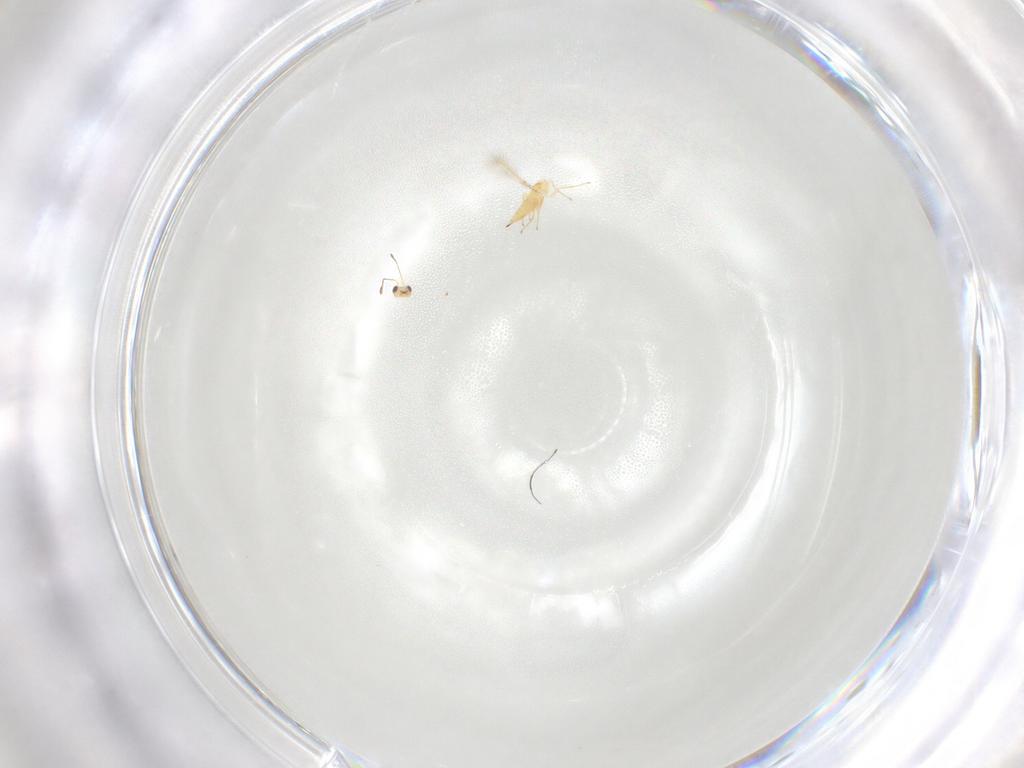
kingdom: Animalia
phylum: Arthropoda
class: Insecta
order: Hymenoptera
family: Mymaridae
